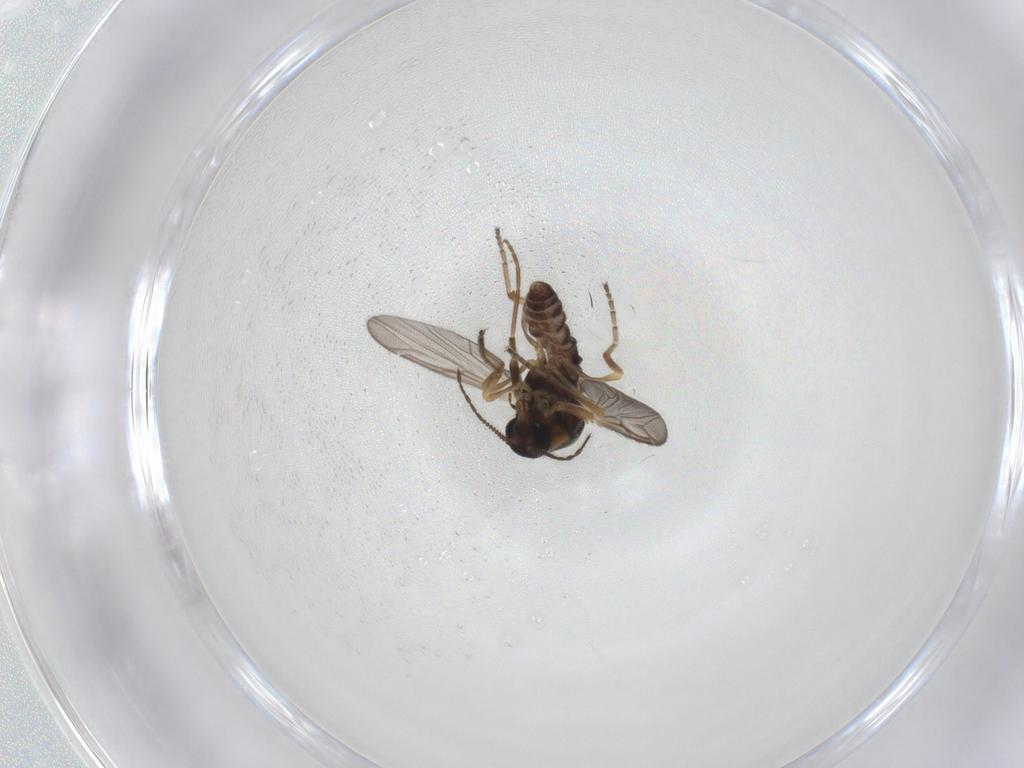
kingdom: Animalia
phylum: Arthropoda
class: Insecta
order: Diptera
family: Chironomidae
